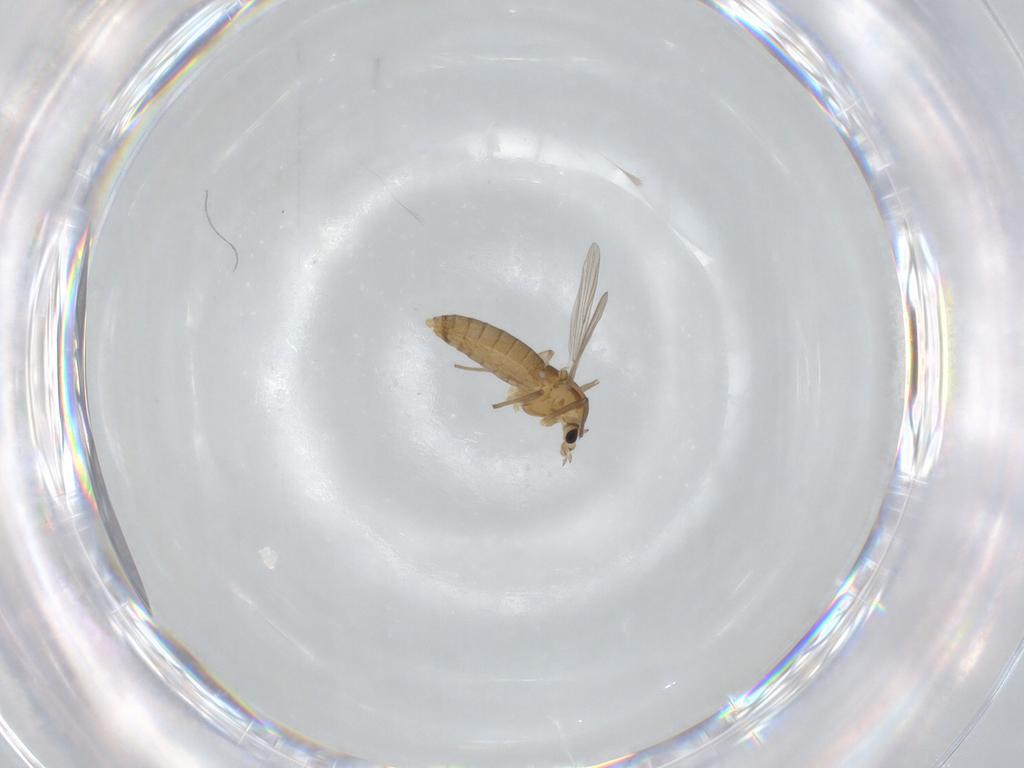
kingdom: Animalia
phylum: Arthropoda
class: Insecta
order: Diptera
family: Chironomidae
